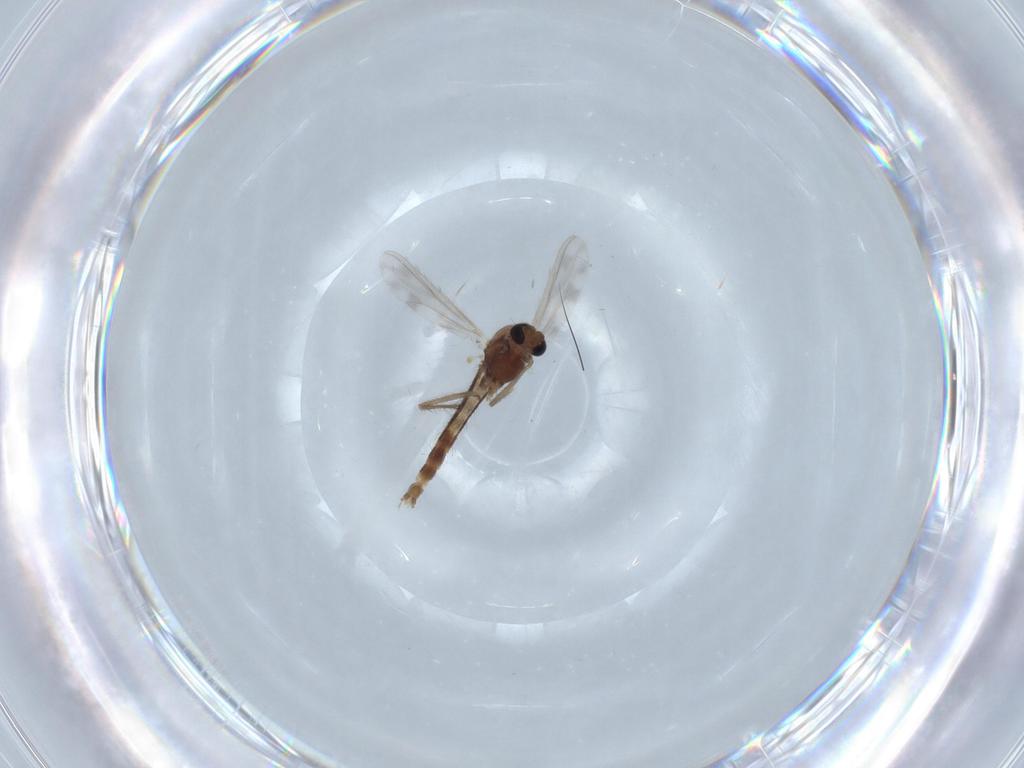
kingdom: Animalia
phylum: Arthropoda
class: Insecta
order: Diptera
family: Chironomidae
